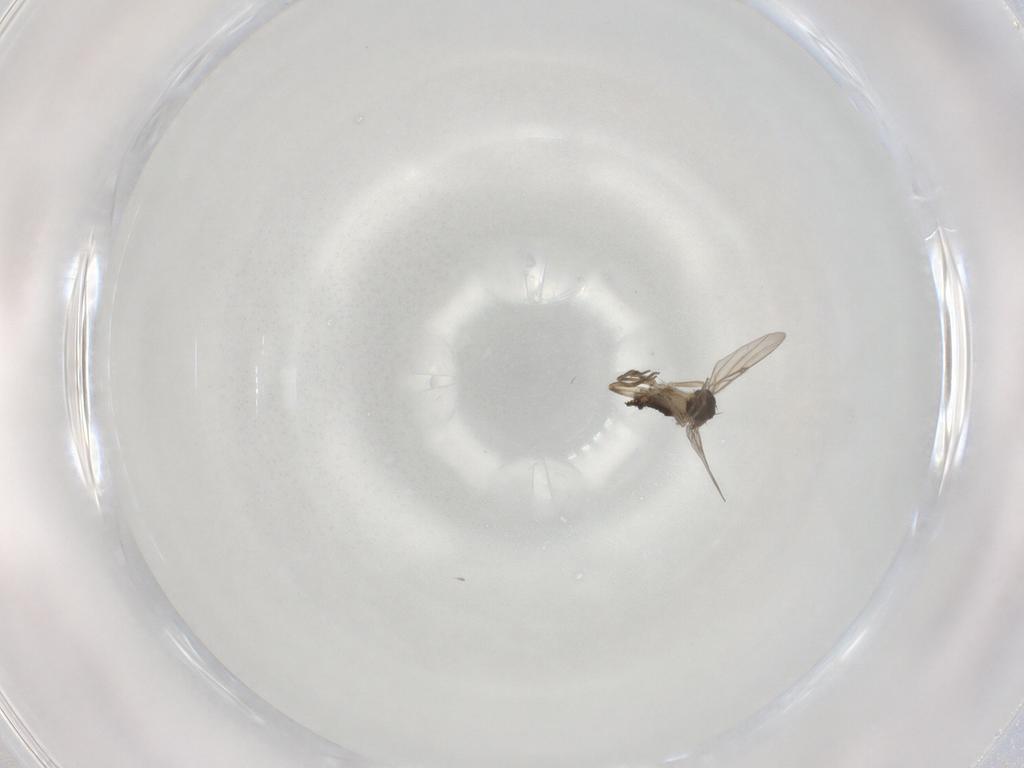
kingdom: Animalia
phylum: Arthropoda
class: Insecta
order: Diptera
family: Phoridae
